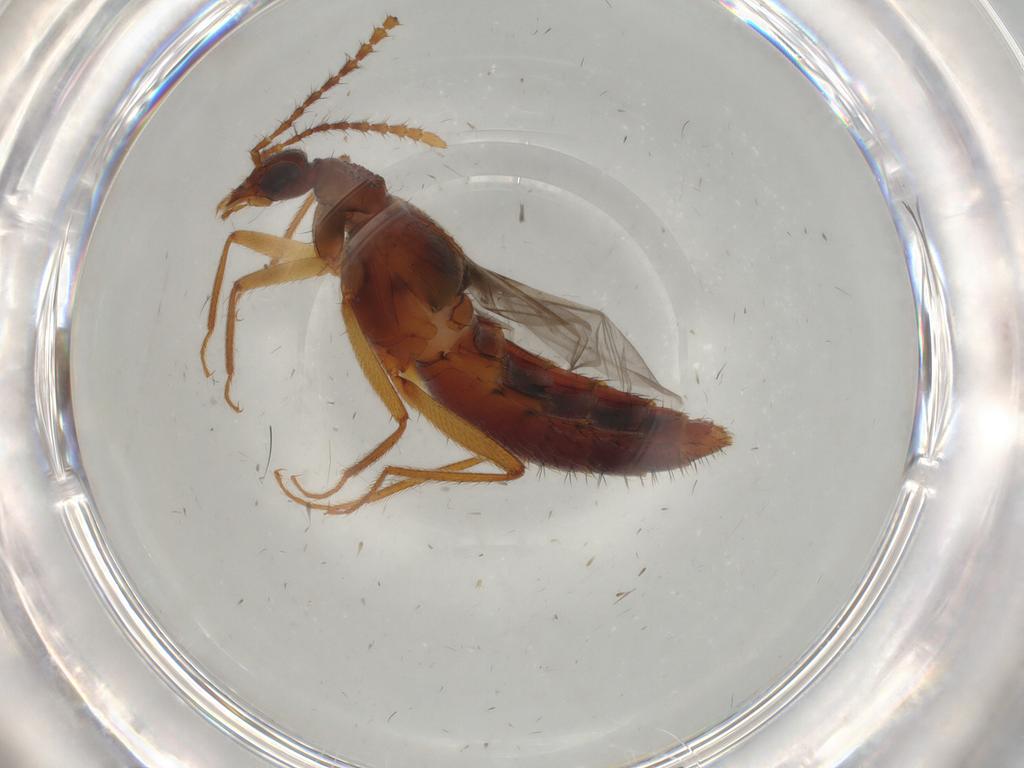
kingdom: Animalia
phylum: Arthropoda
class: Insecta
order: Coleoptera
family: Staphylinidae
